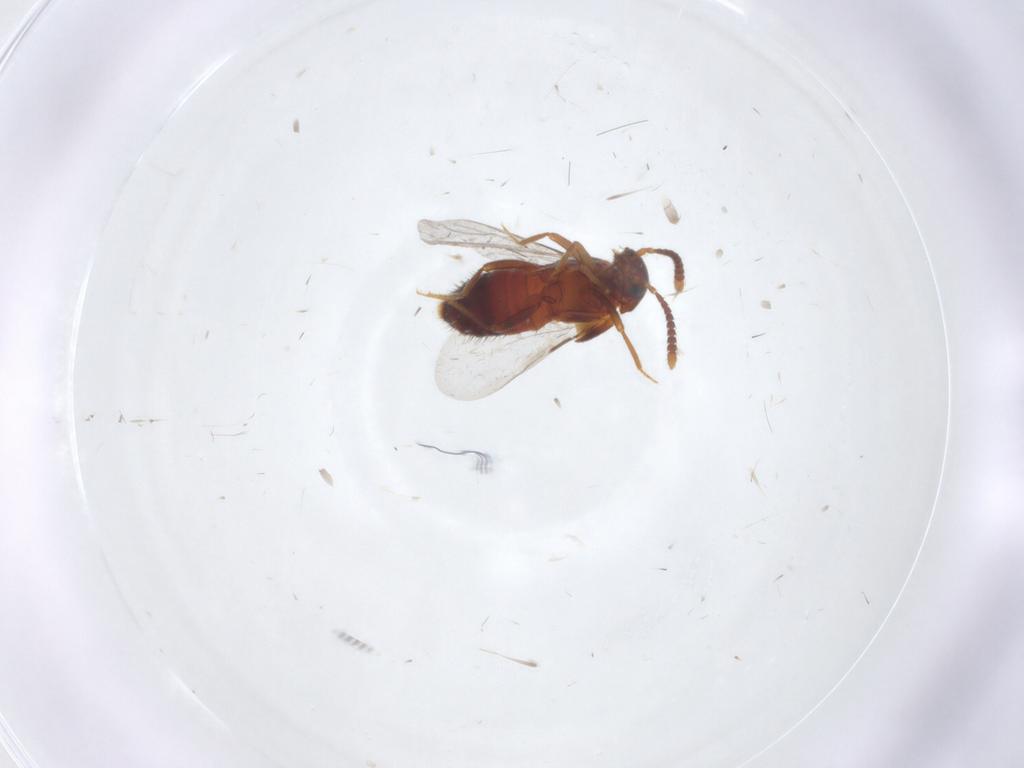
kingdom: Animalia
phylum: Arthropoda
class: Insecta
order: Coleoptera
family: Staphylinidae
